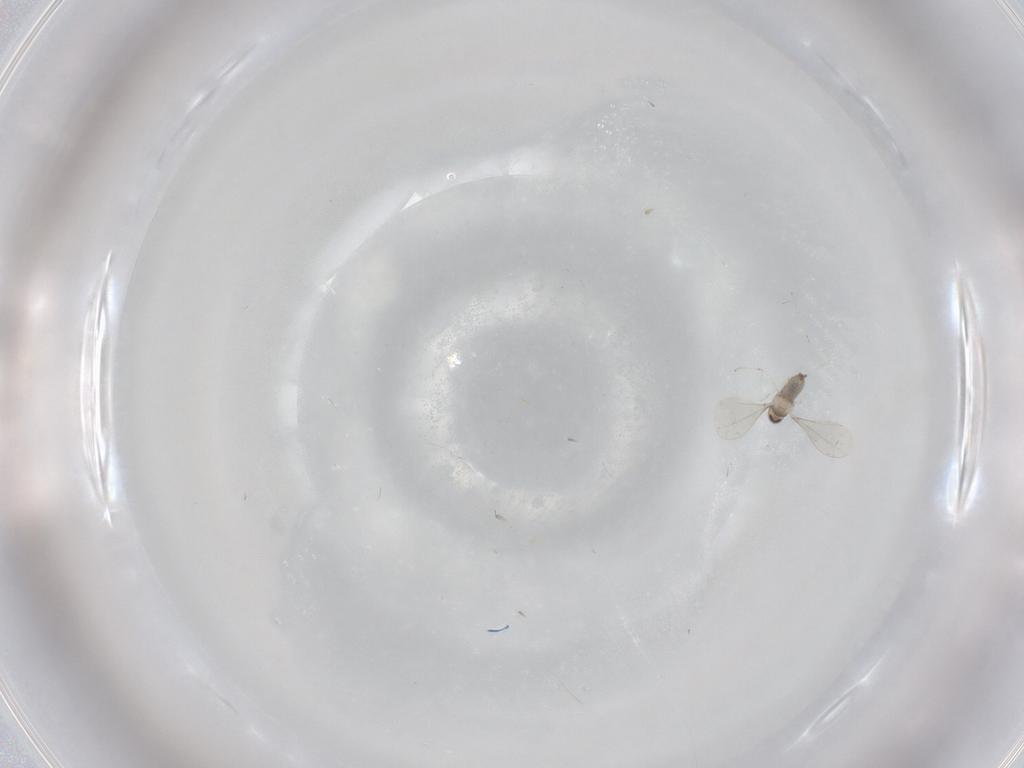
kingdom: Animalia
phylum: Arthropoda
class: Insecta
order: Diptera
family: Cecidomyiidae
